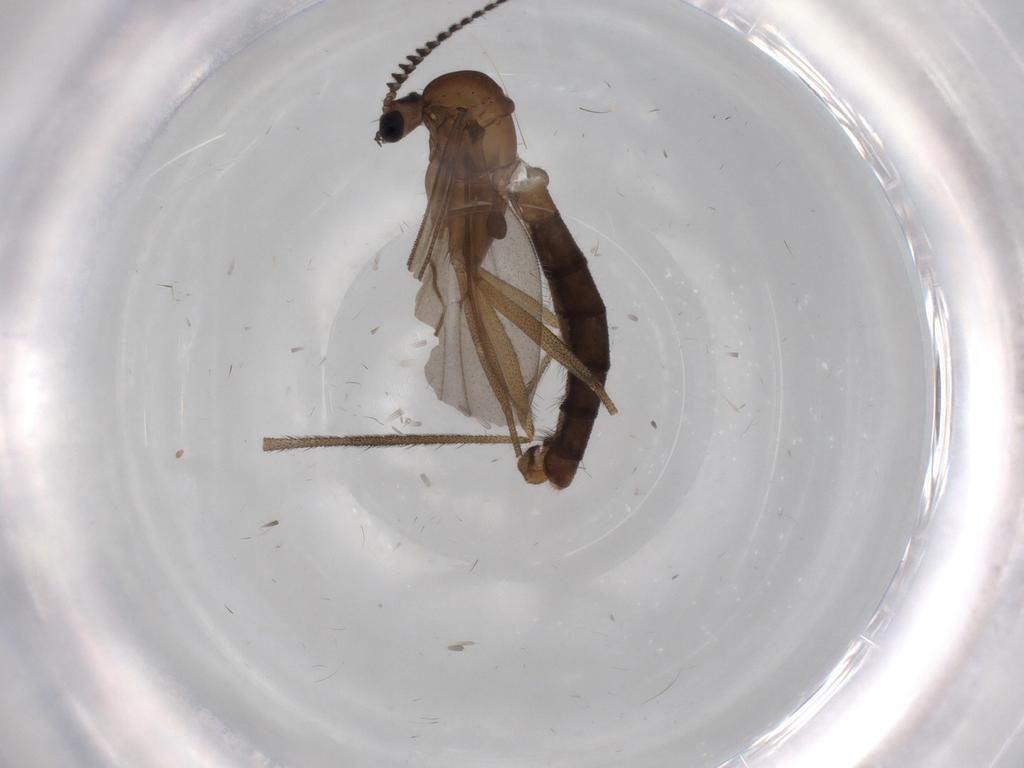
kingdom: Animalia
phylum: Arthropoda
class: Insecta
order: Diptera
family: Ditomyiidae
